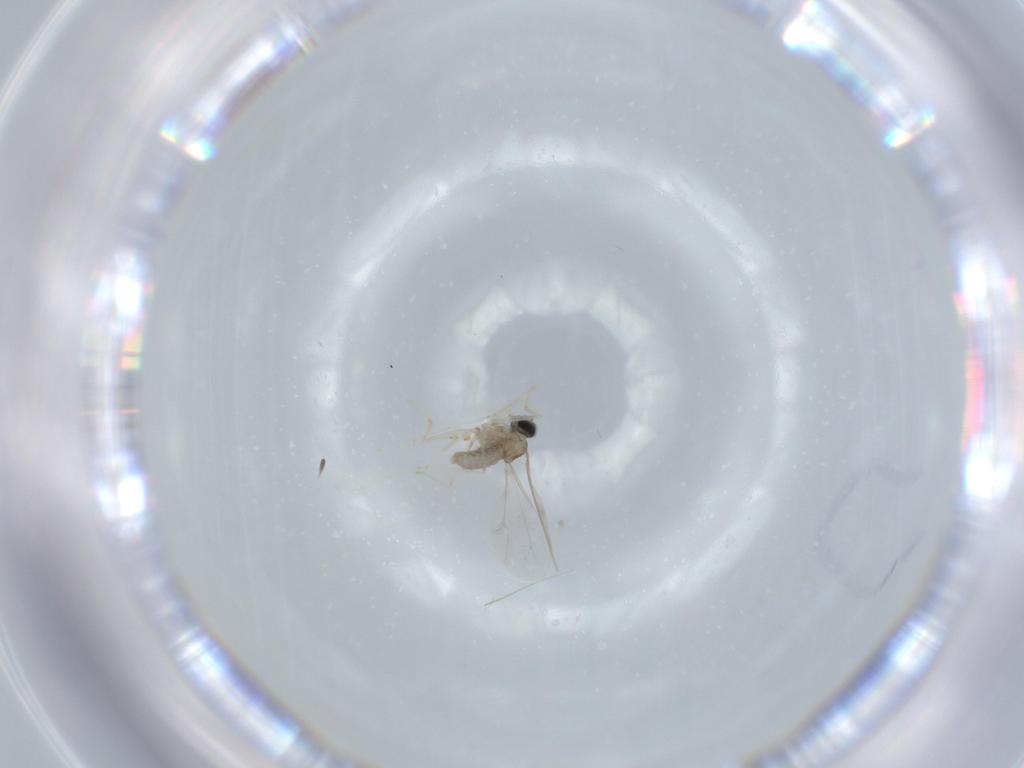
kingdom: Animalia
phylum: Arthropoda
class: Insecta
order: Diptera
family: Cecidomyiidae
